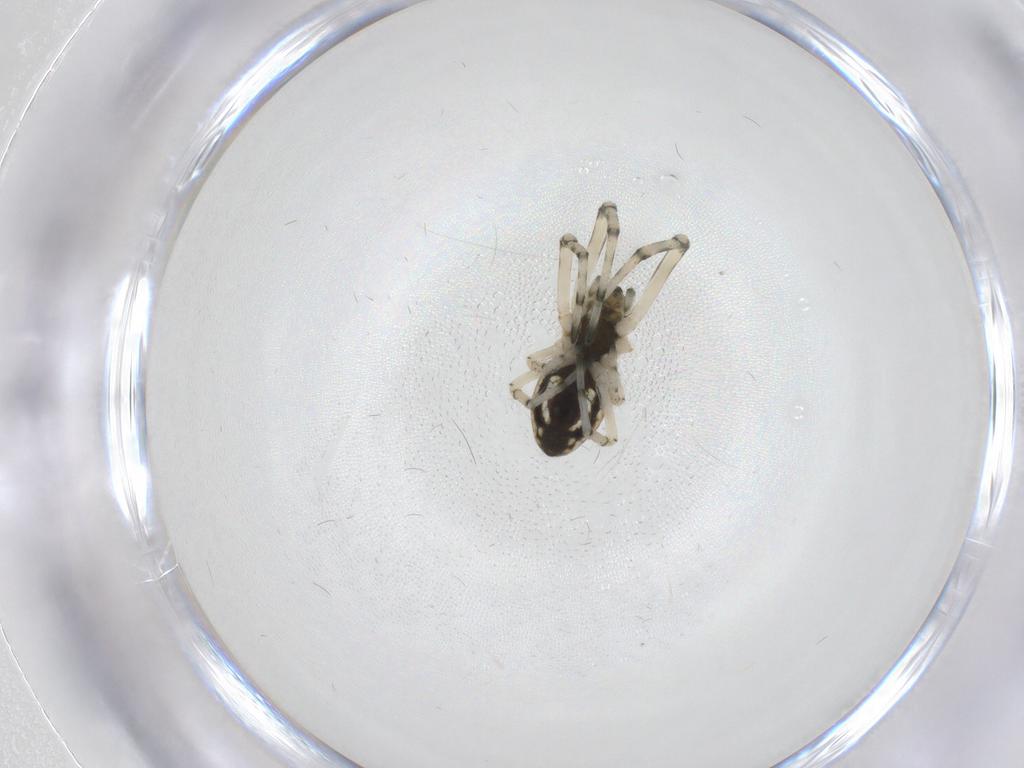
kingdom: Animalia
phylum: Arthropoda
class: Arachnida
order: Araneae
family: Tetragnathidae
